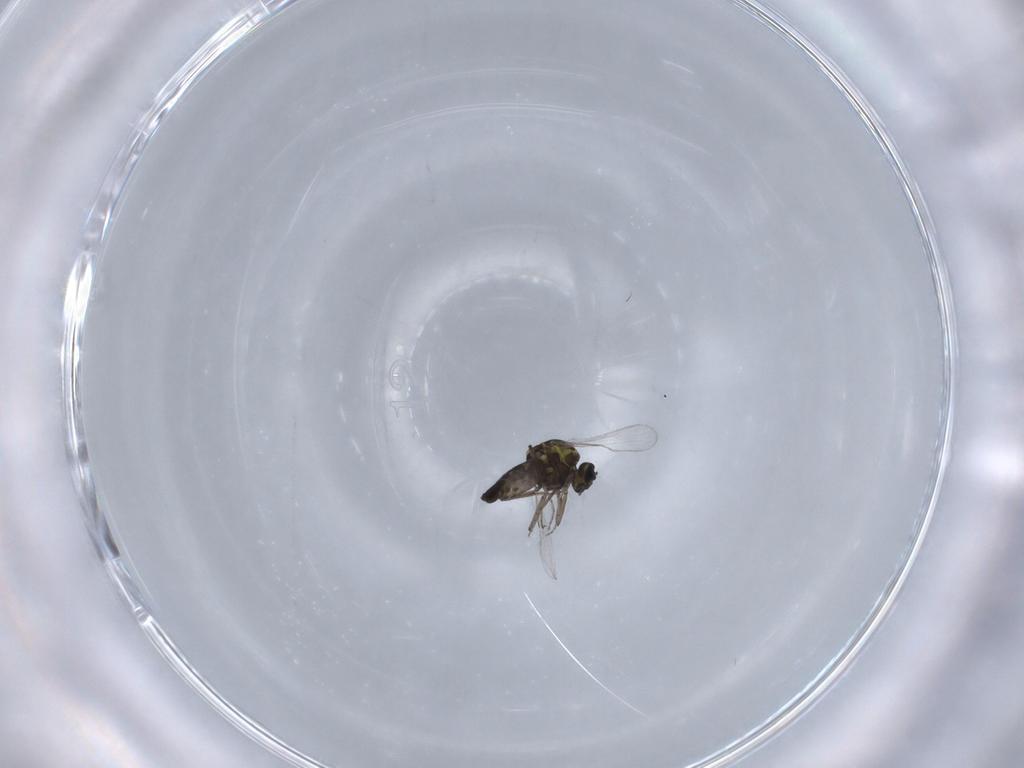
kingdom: Animalia
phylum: Arthropoda
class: Insecta
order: Diptera
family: Ceratopogonidae
